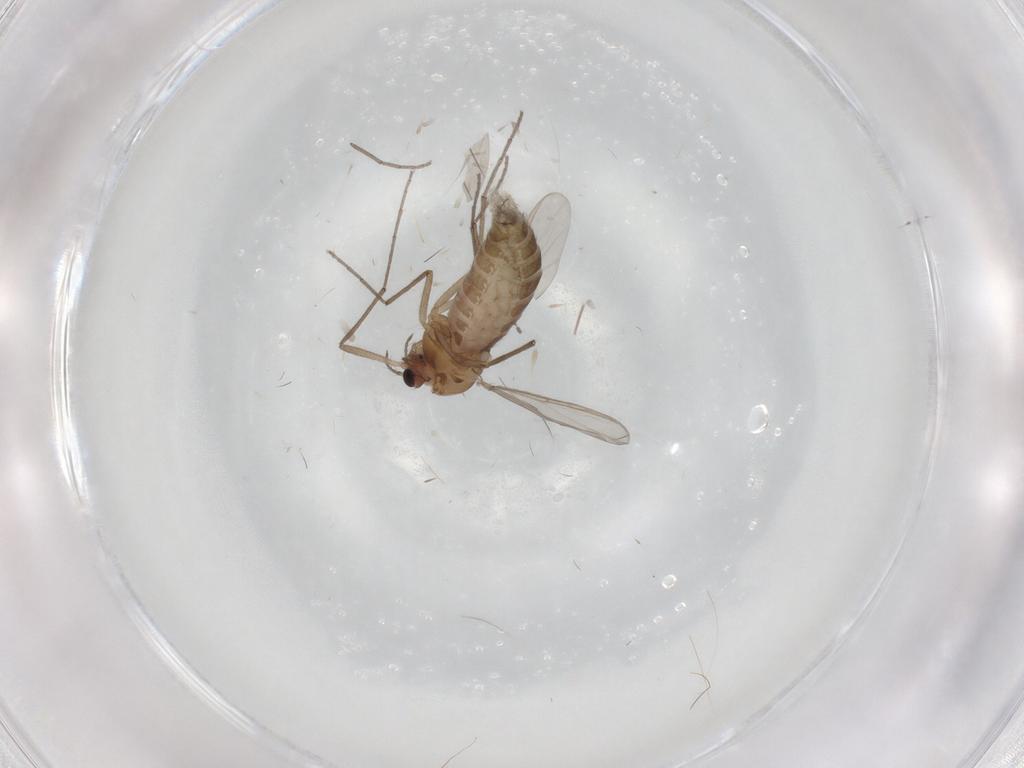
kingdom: Animalia
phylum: Arthropoda
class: Insecta
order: Diptera
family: Chironomidae
